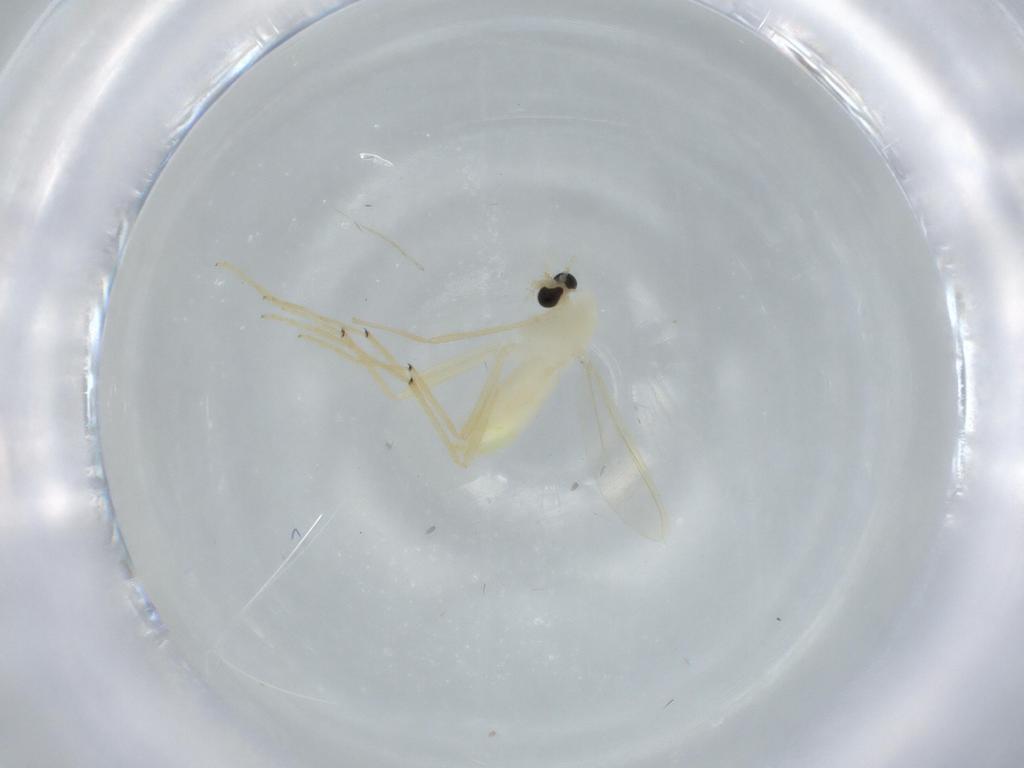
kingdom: Animalia
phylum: Arthropoda
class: Insecta
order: Diptera
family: Chironomidae
